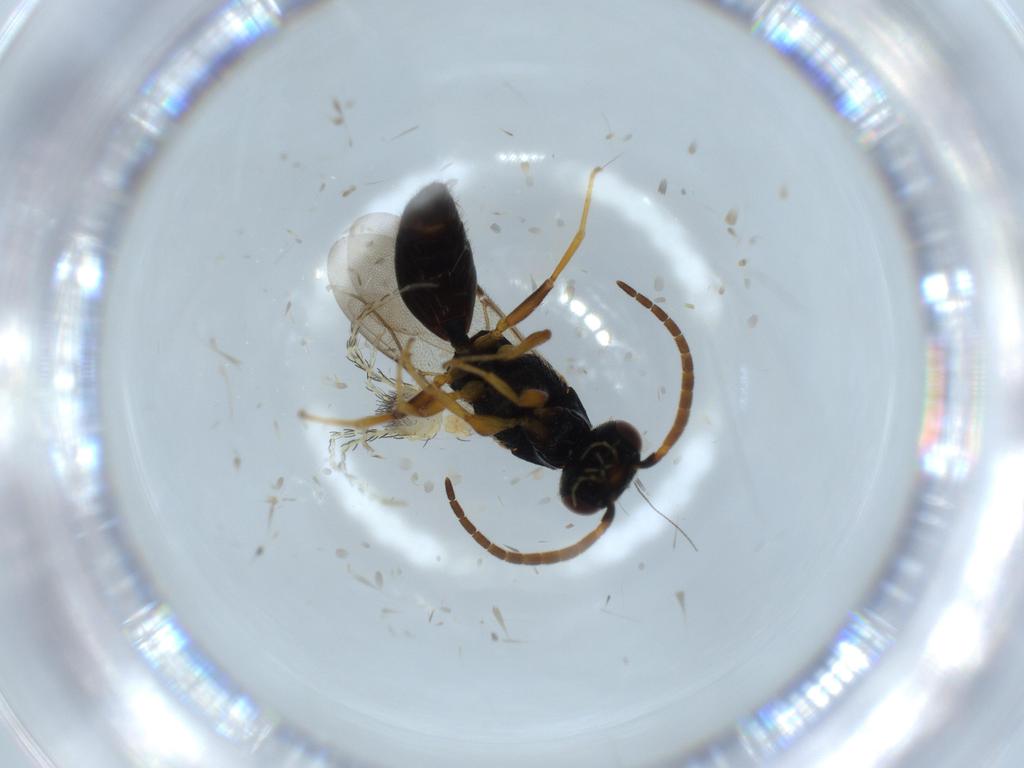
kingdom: Animalia
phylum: Arthropoda
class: Insecta
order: Hymenoptera
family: Bethylidae
